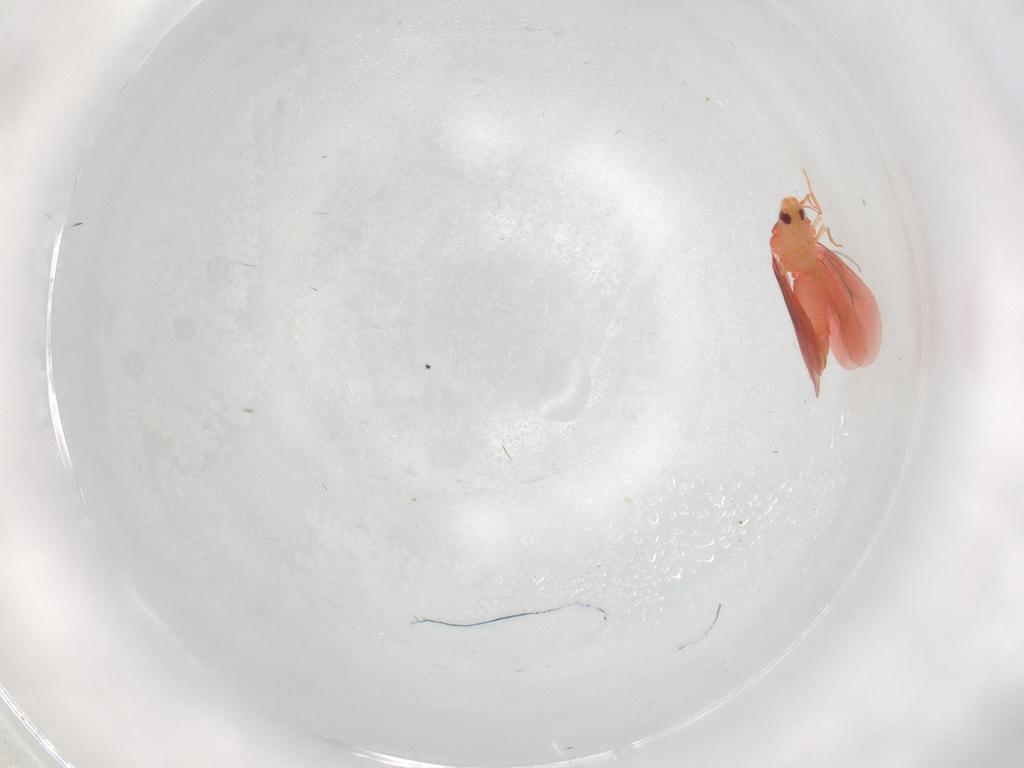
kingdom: Animalia
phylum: Arthropoda
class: Insecta
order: Hemiptera
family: Aleyrodidae
